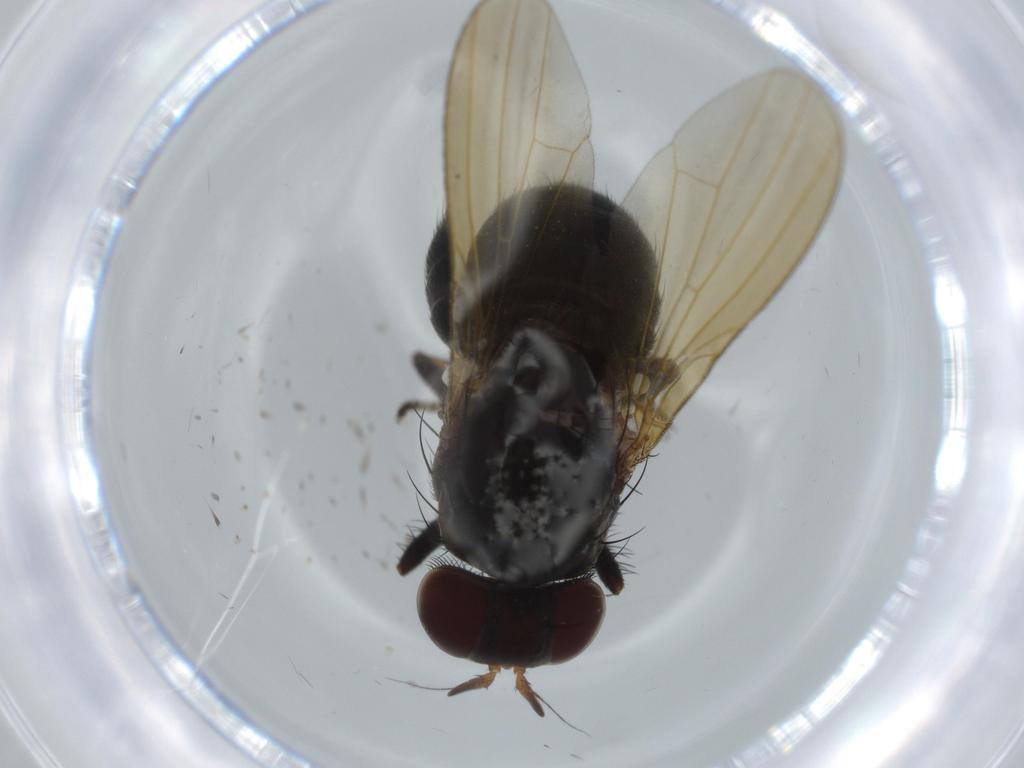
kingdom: Animalia
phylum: Arthropoda
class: Insecta
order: Diptera
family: Lauxaniidae
